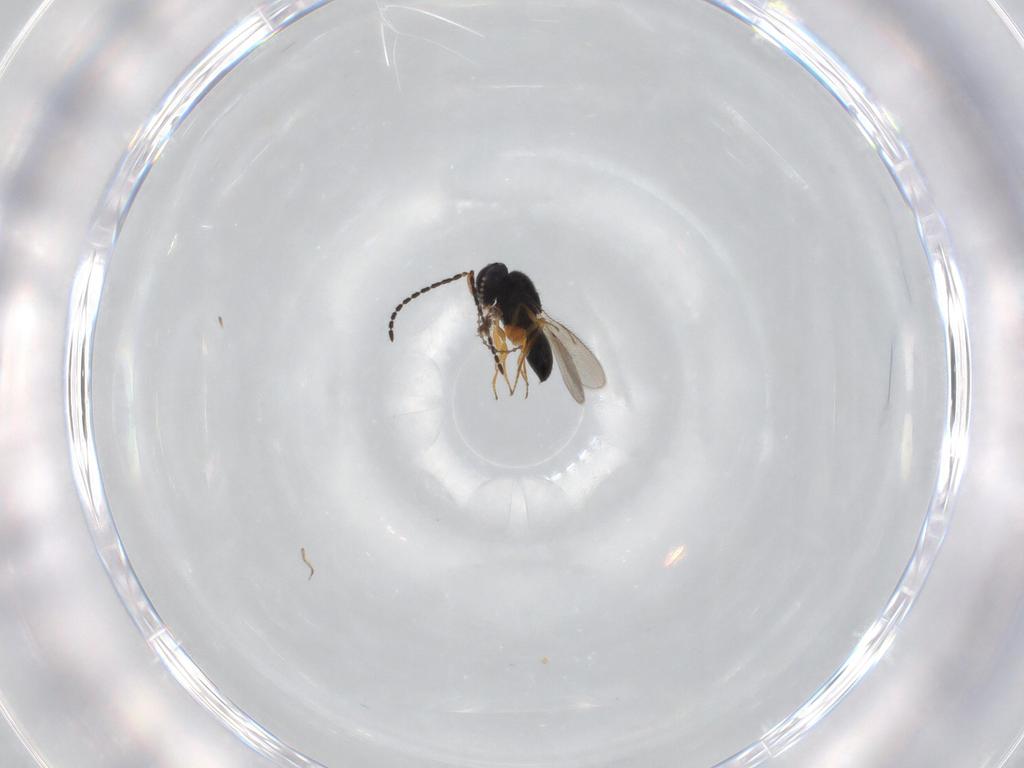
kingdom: Animalia
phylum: Arthropoda
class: Insecta
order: Hymenoptera
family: Scelionidae
